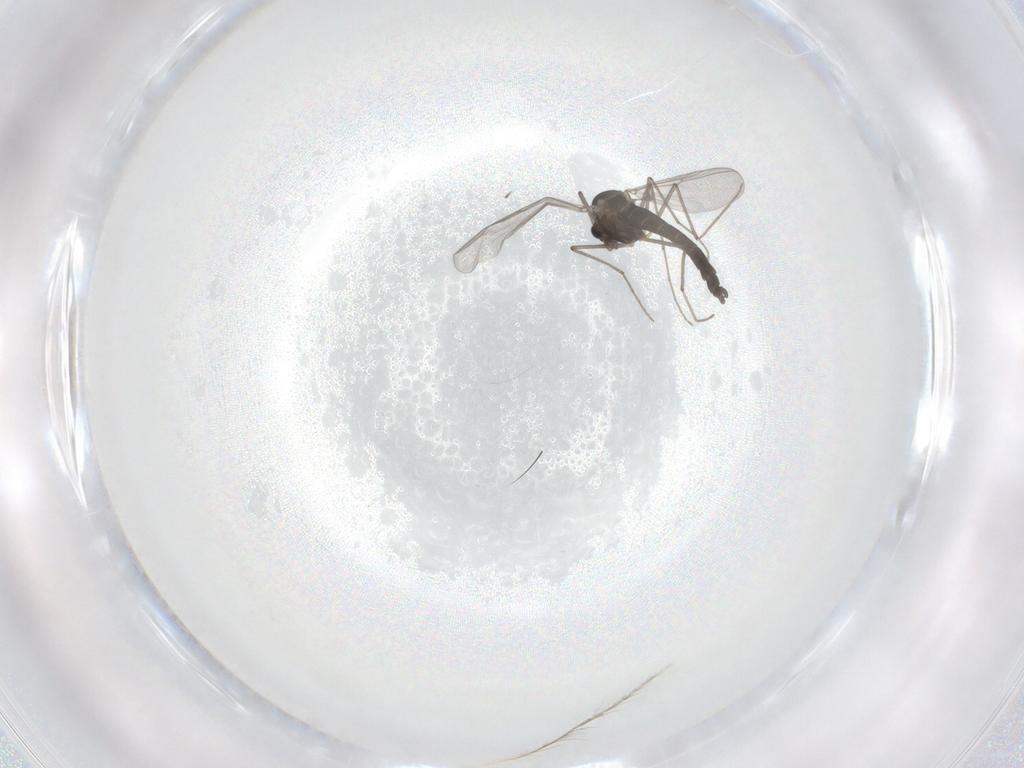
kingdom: Animalia
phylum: Arthropoda
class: Insecta
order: Diptera
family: Chironomidae
